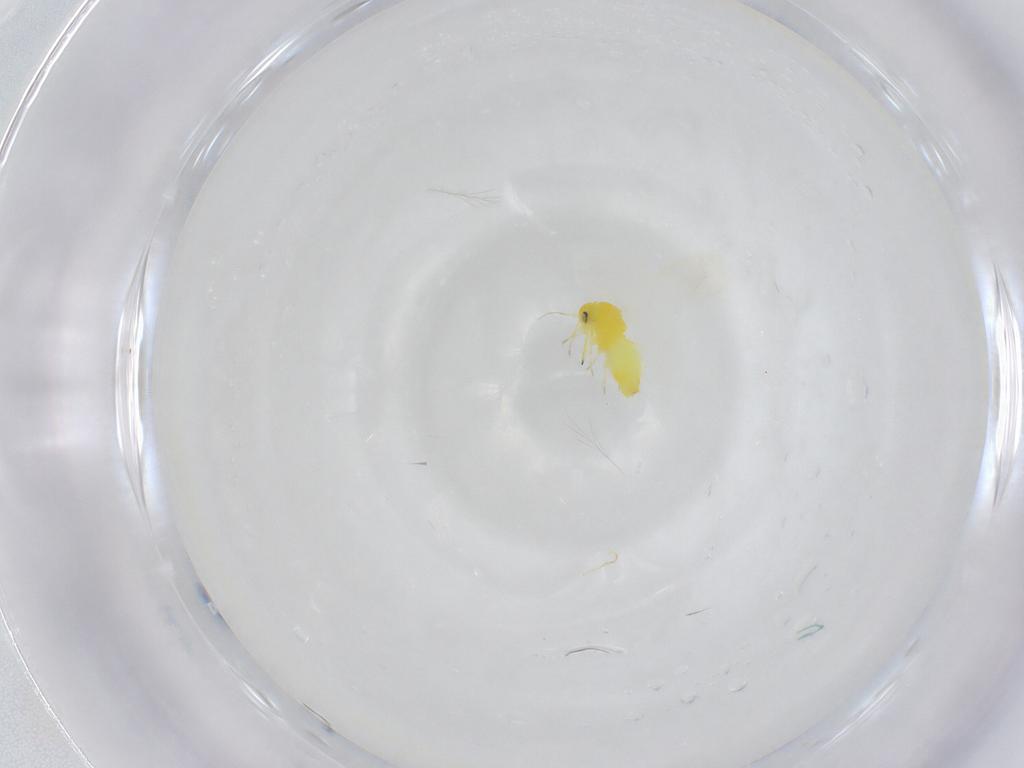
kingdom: Animalia
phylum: Arthropoda
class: Insecta
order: Hemiptera
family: Aleyrodidae
